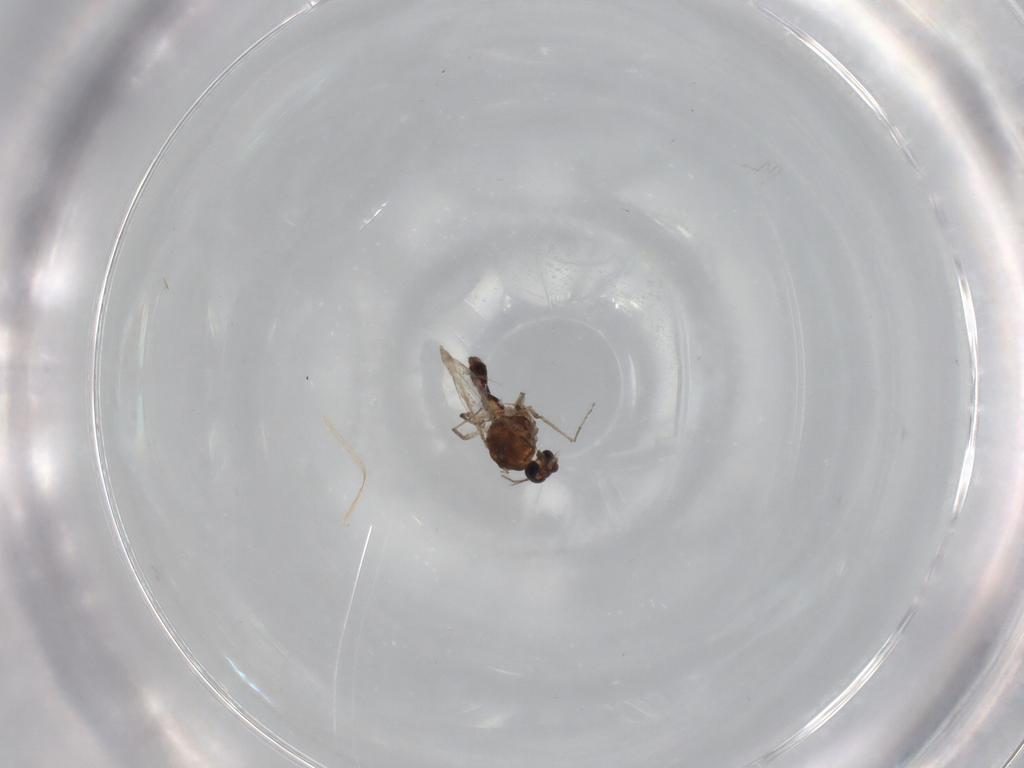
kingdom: Animalia
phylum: Arthropoda
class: Insecta
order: Diptera
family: Ceratopogonidae
